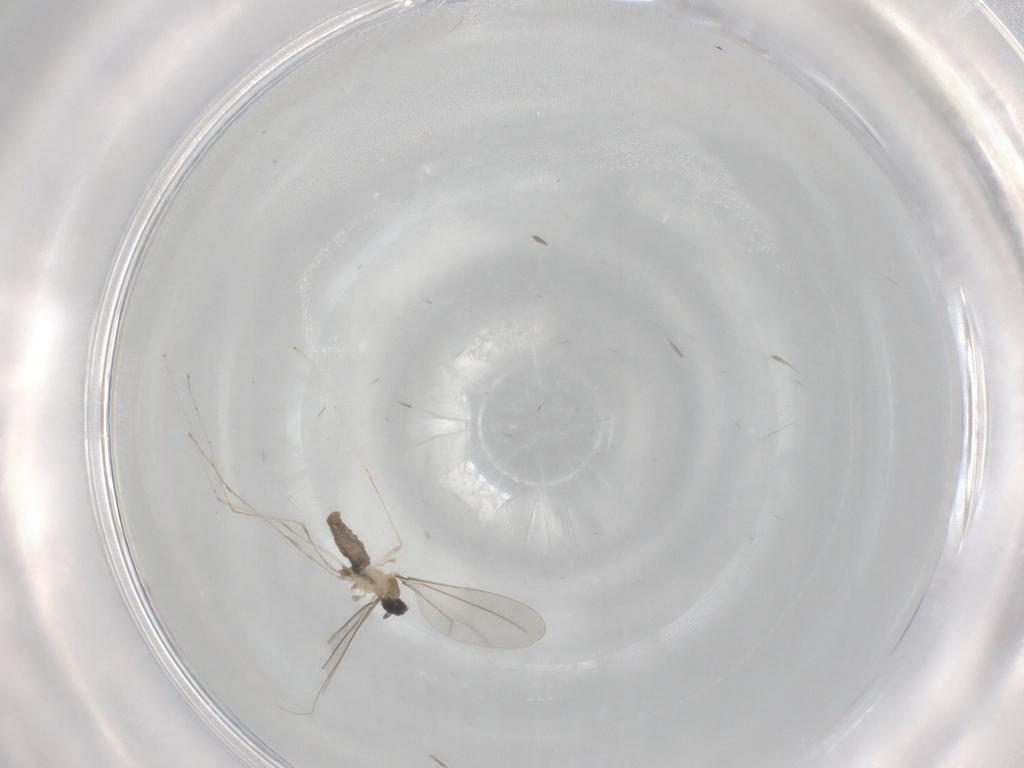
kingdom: Animalia
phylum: Arthropoda
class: Insecta
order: Diptera
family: Cecidomyiidae
